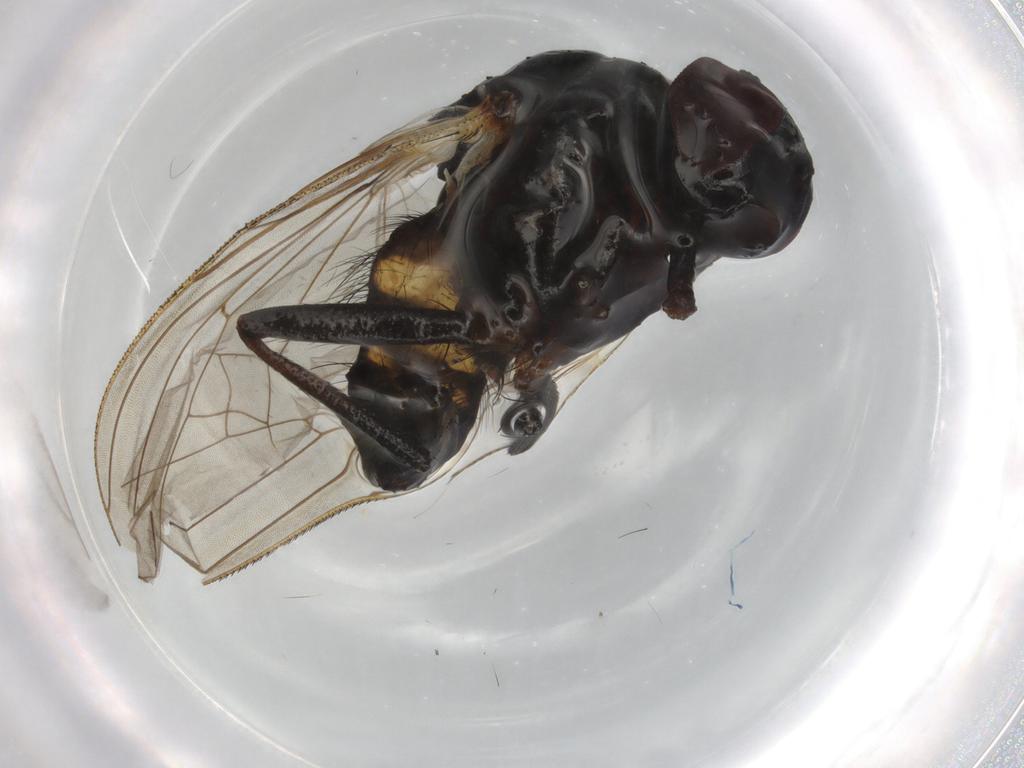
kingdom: Animalia
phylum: Arthropoda
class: Insecta
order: Diptera
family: Anthomyiidae
